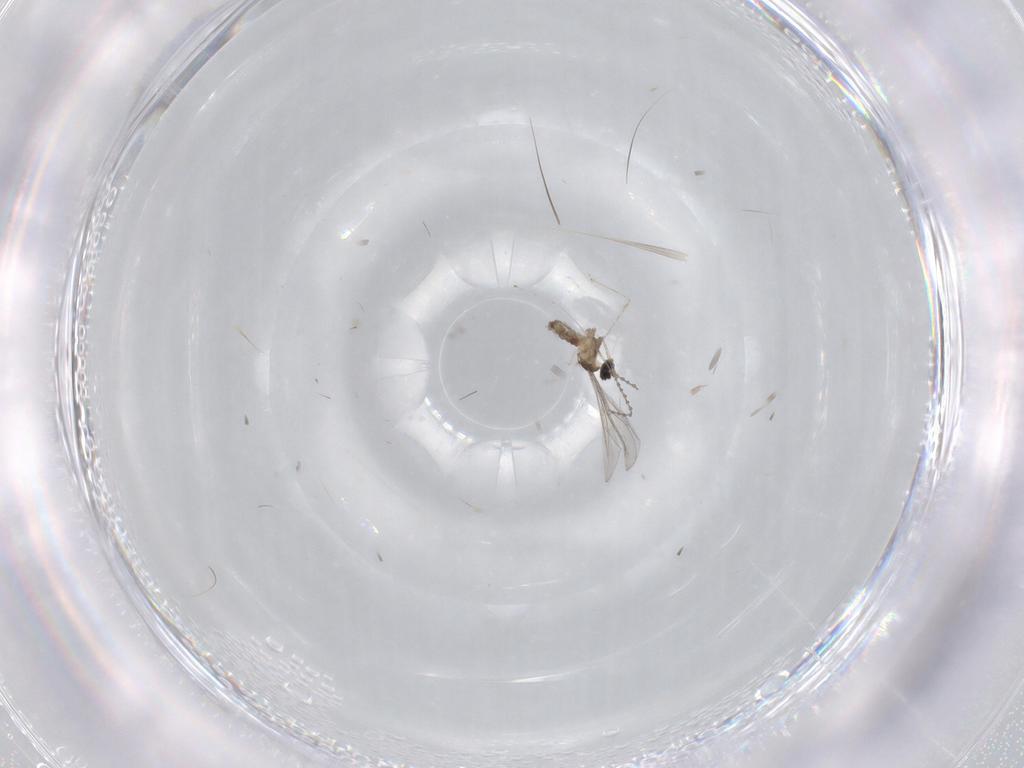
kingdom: Animalia
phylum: Arthropoda
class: Insecta
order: Diptera
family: Cecidomyiidae
